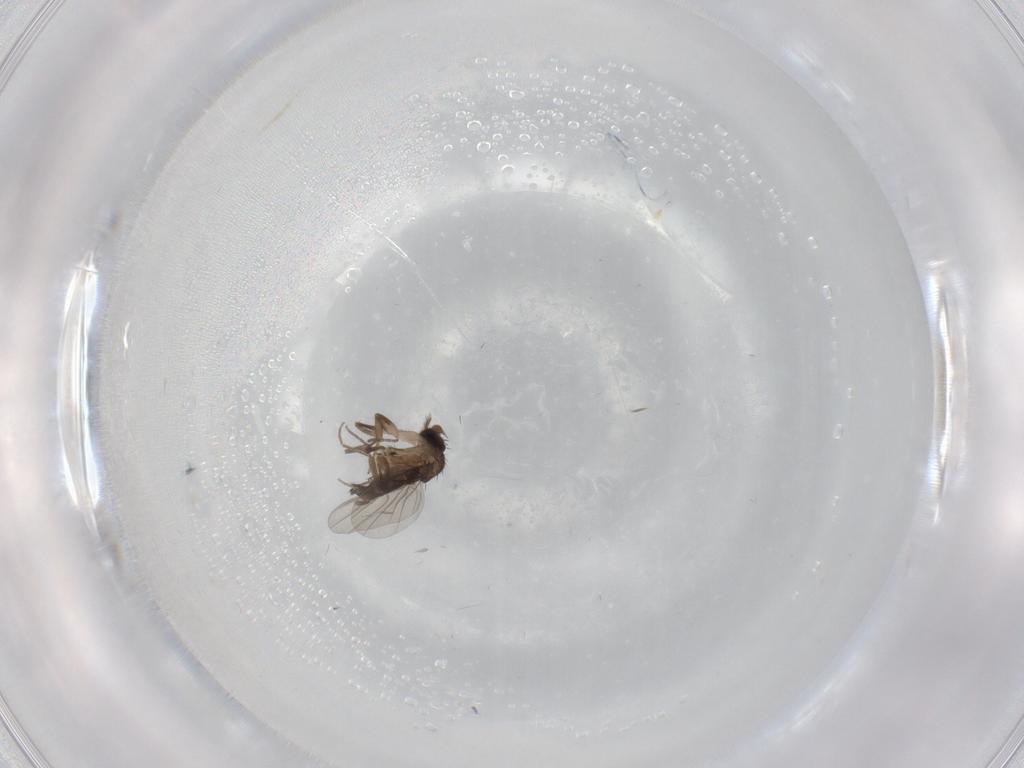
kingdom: Animalia
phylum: Arthropoda
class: Insecta
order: Diptera
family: Phoridae
